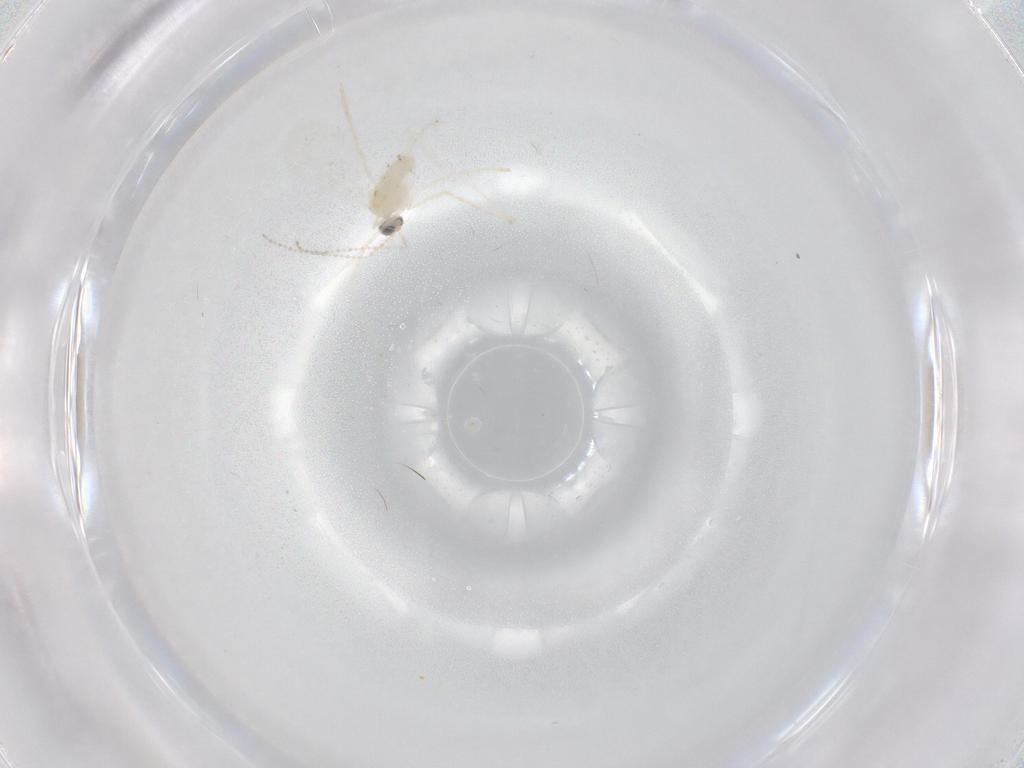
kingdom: Animalia
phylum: Arthropoda
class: Insecta
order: Diptera
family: Cecidomyiidae
